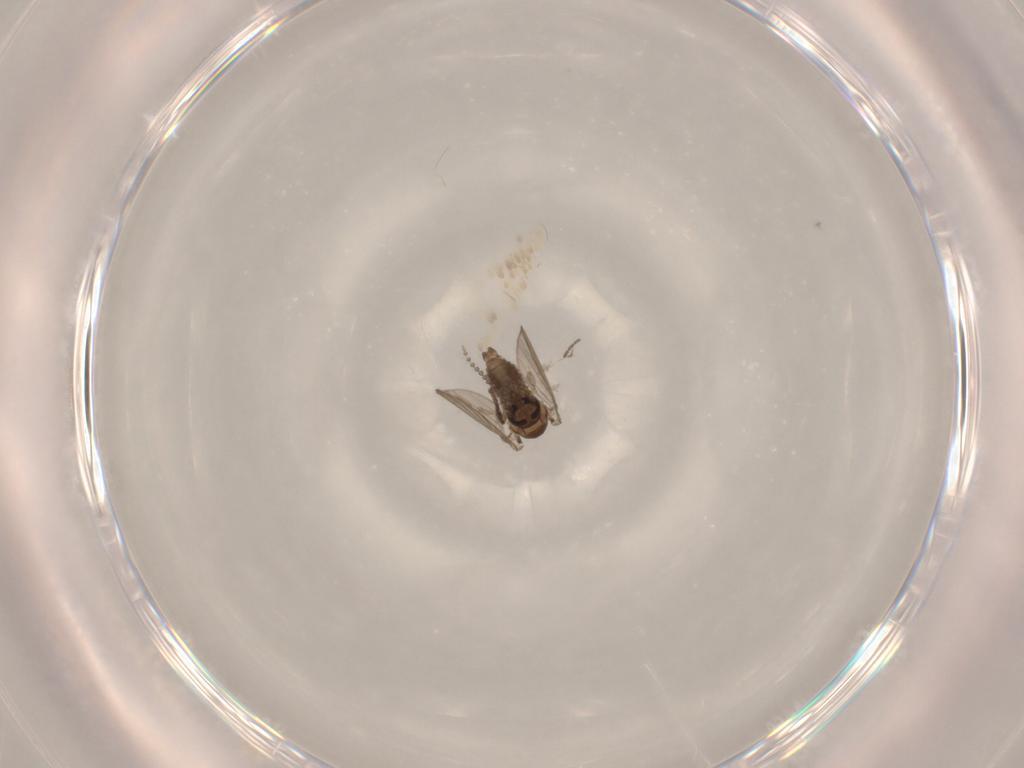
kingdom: Animalia
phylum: Arthropoda
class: Insecta
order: Diptera
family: Psychodidae
